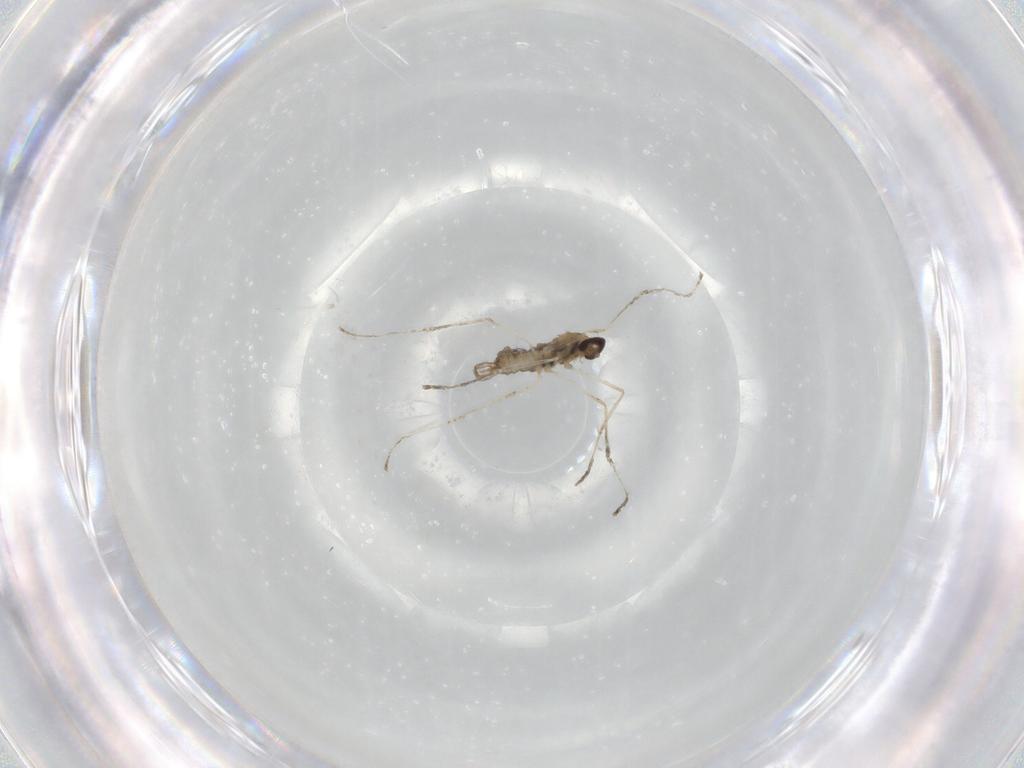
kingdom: Animalia
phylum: Arthropoda
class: Insecta
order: Diptera
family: Cecidomyiidae
